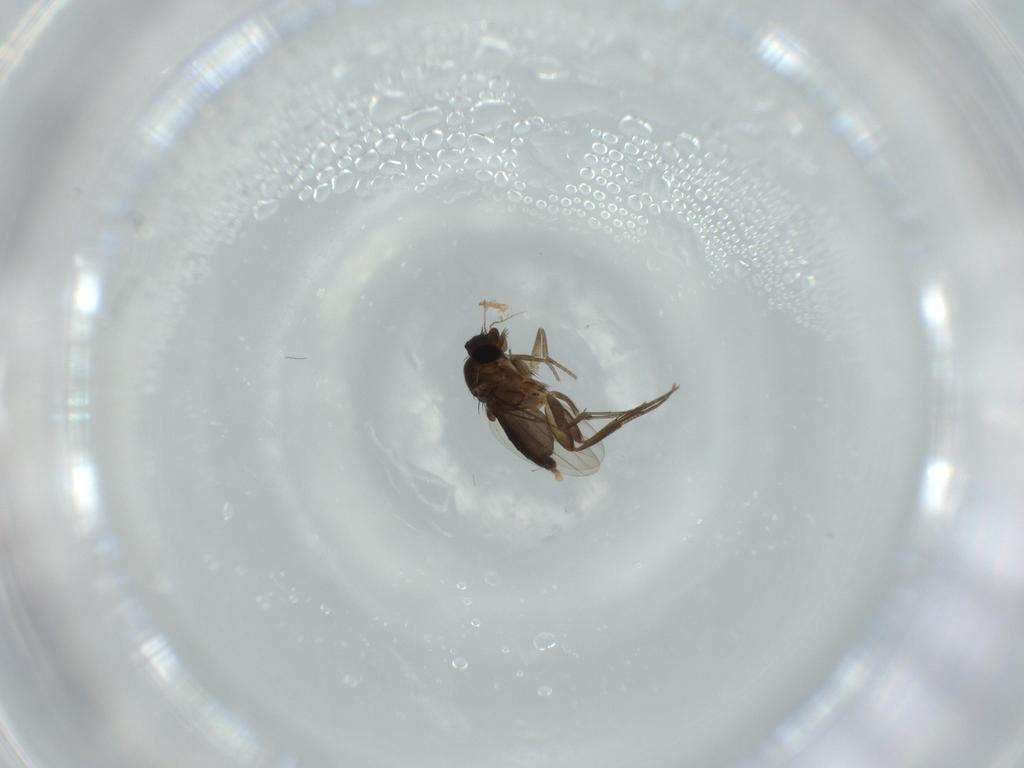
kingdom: Animalia
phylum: Arthropoda
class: Insecta
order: Diptera
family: Phoridae
